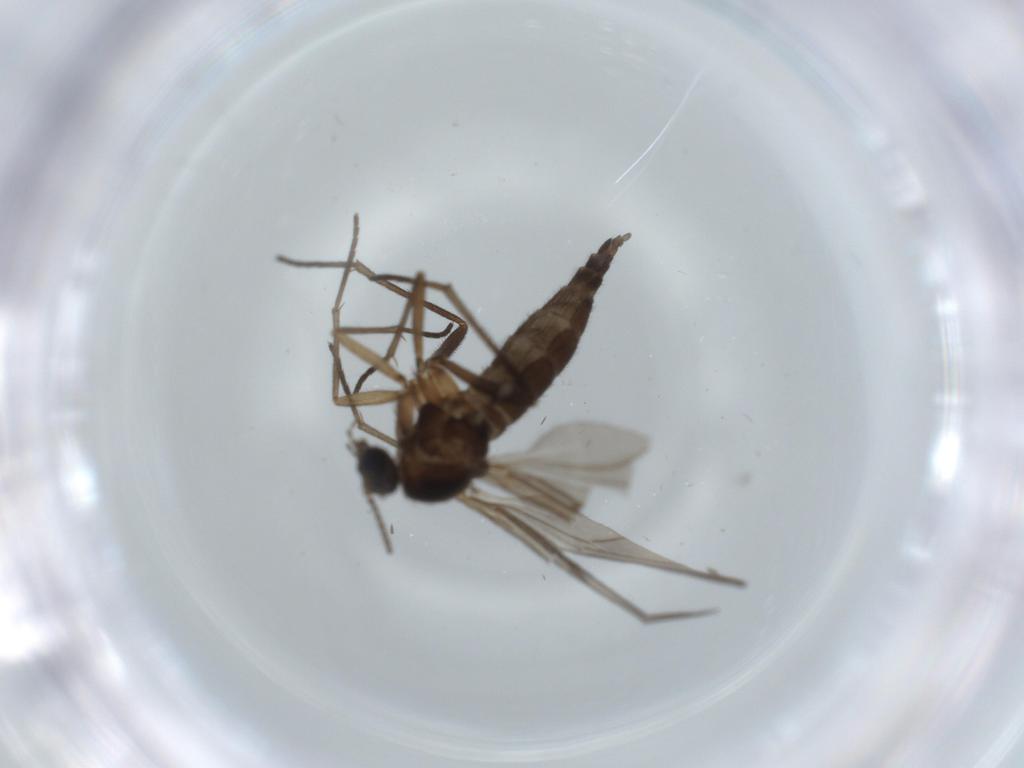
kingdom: Animalia
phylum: Arthropoda
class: Insecta
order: Diptera
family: Sciaridae
